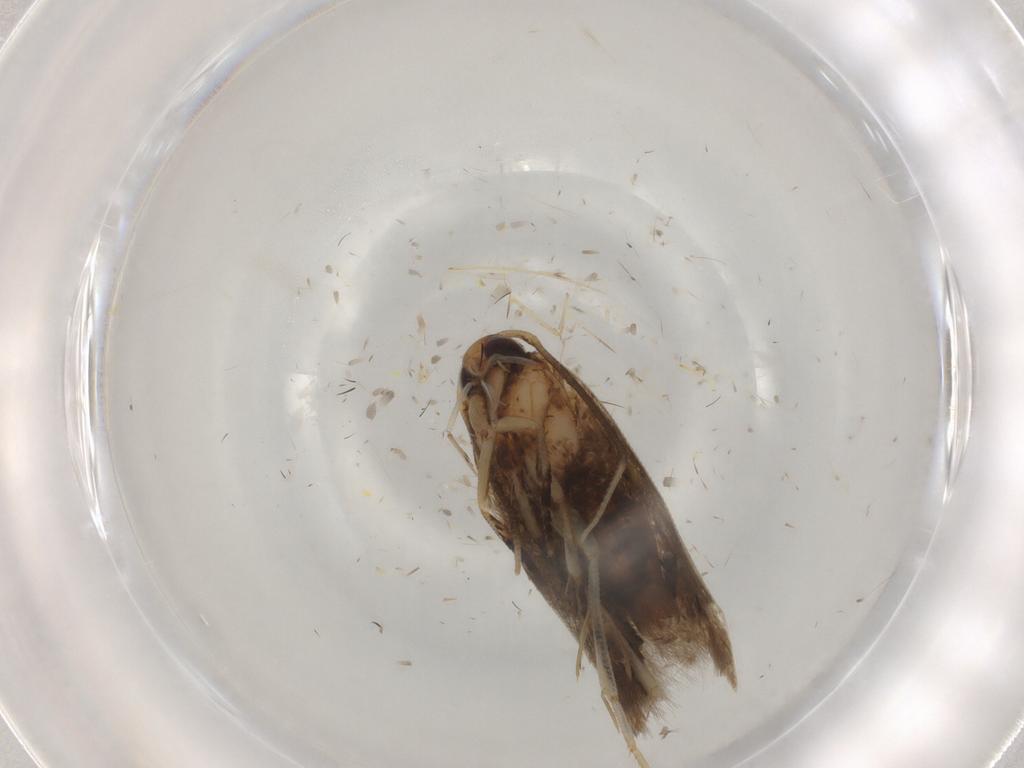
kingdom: Animalia
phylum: Arthropoda
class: Insecta
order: Lepidoptera
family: Cosmopterigidae
